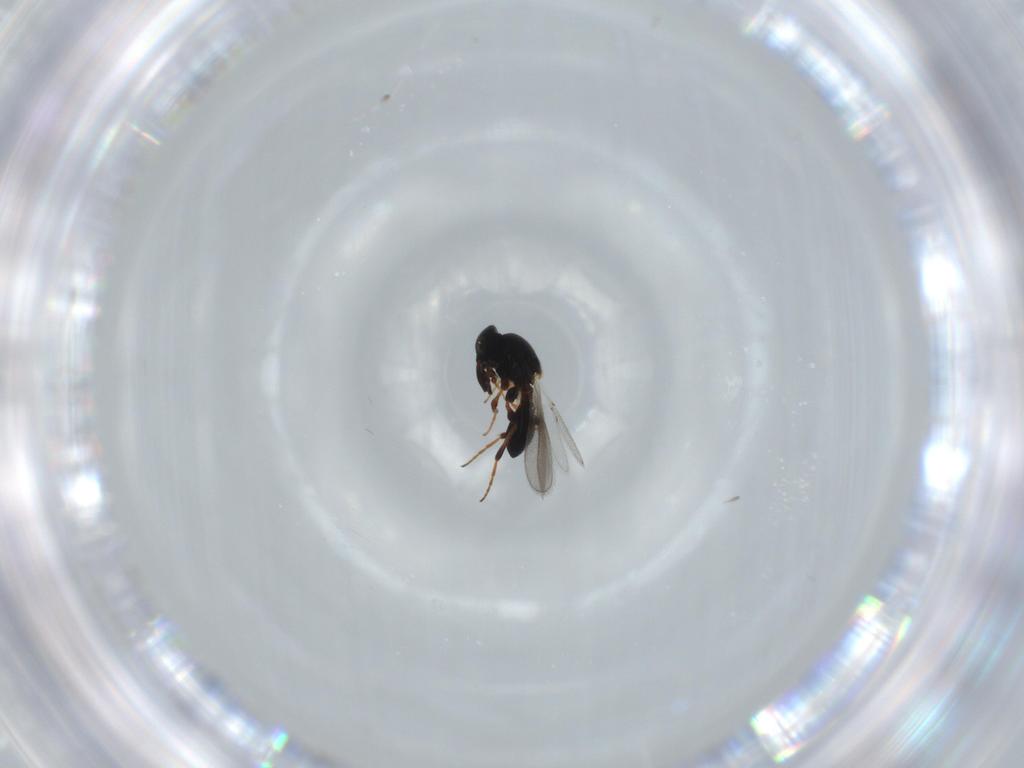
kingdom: Animalia
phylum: Arthropoda
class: Insecta
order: Hymenoptera
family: Platygastridae
